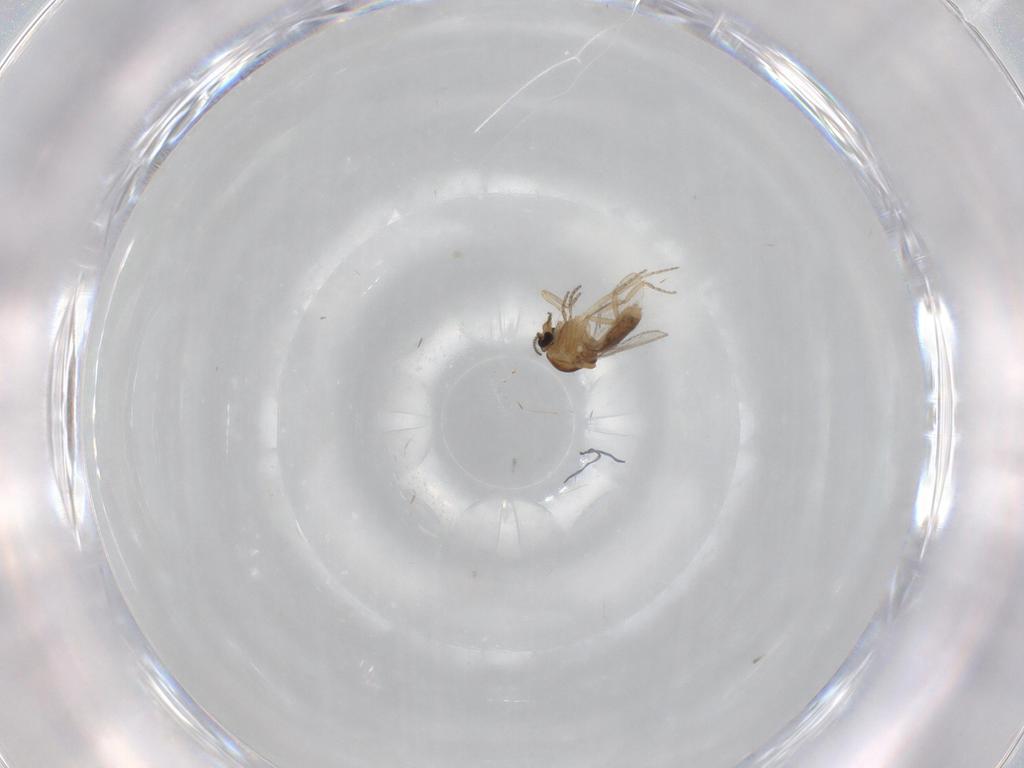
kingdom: Animalia
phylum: Arthropoda
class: Insecta
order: Diptera
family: Ceratopogonidae
